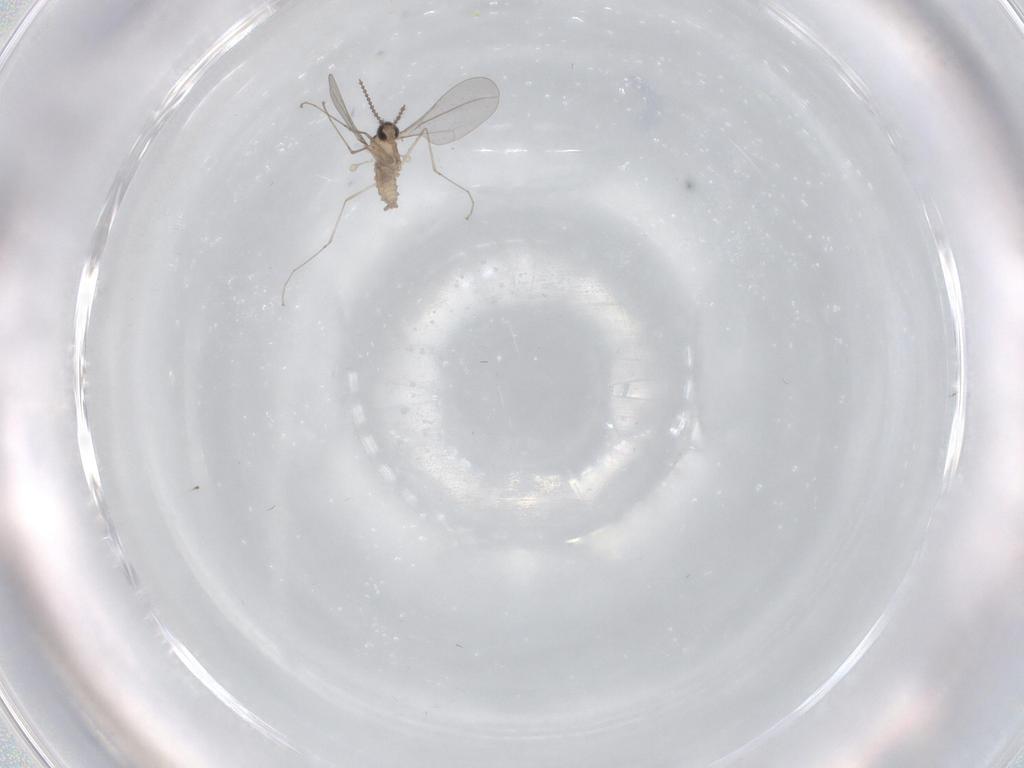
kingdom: Animalia
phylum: Arthropoda
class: Insecta
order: Diptera
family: Cecidomyiidae
